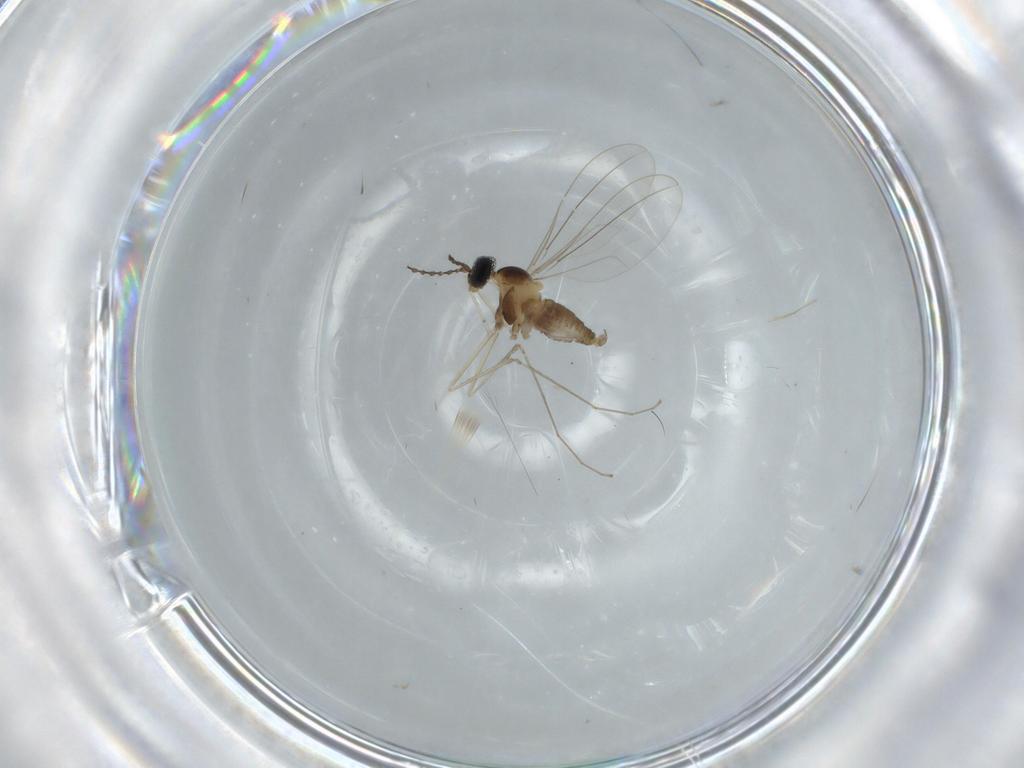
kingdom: Animalia
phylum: Arthropoda
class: Insecta
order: Diptera
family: Cecidomyiidae
